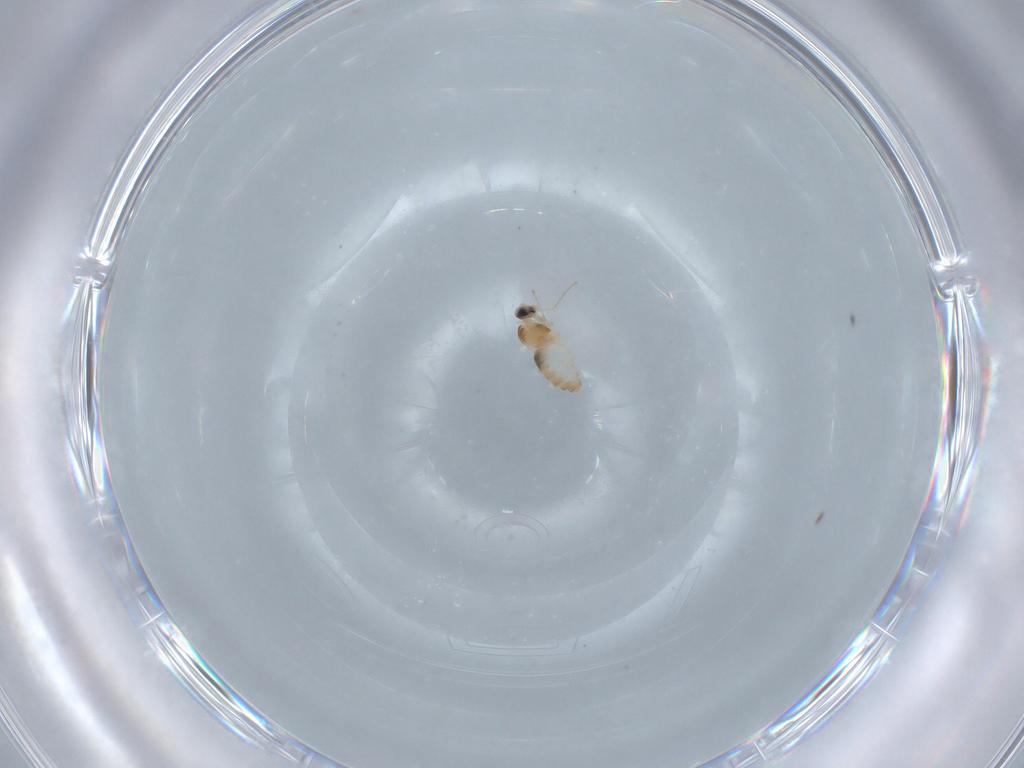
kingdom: Animalia
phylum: Arthropoda
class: Insecta
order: Diptera
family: Cecidomyiidae
